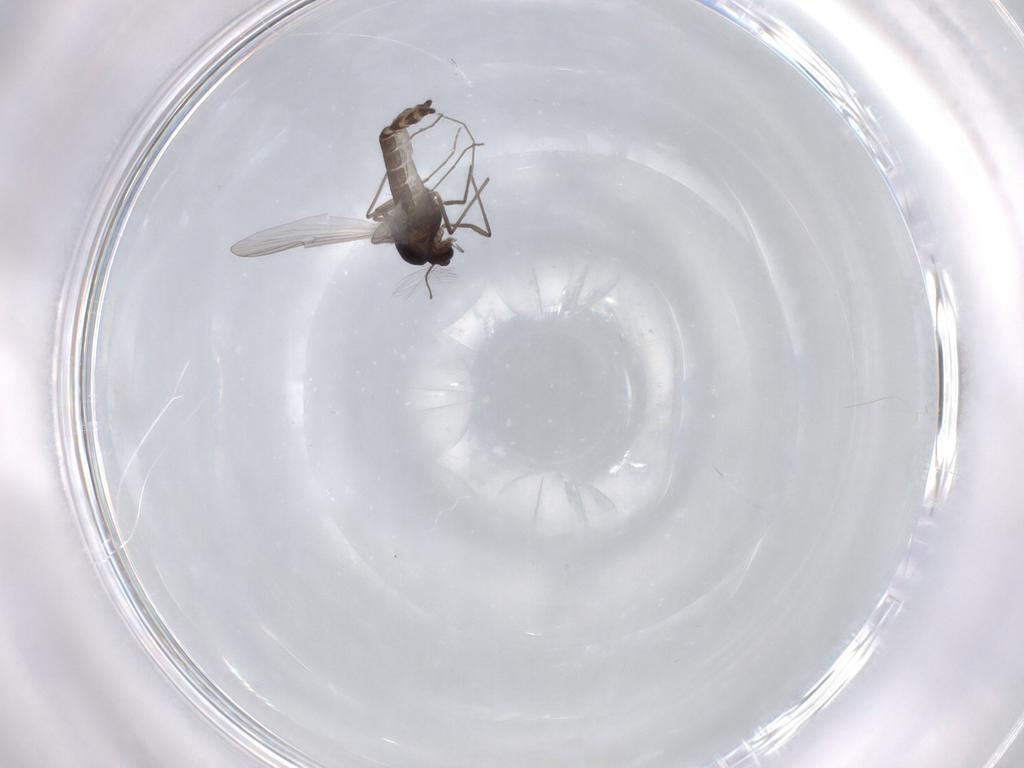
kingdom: Animalia
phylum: Arthropoda
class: Insecta
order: Diptera
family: Chironomidae
